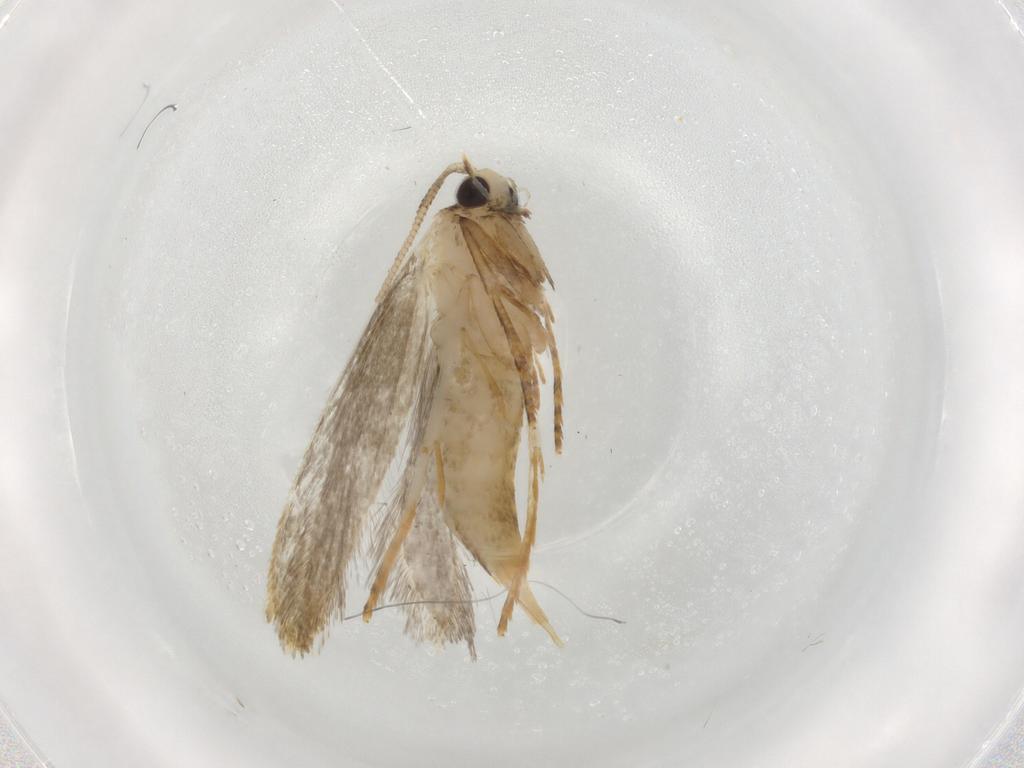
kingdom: Animalia
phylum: Arthropoda
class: Insecta
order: Lepidoptera
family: Tineidae
